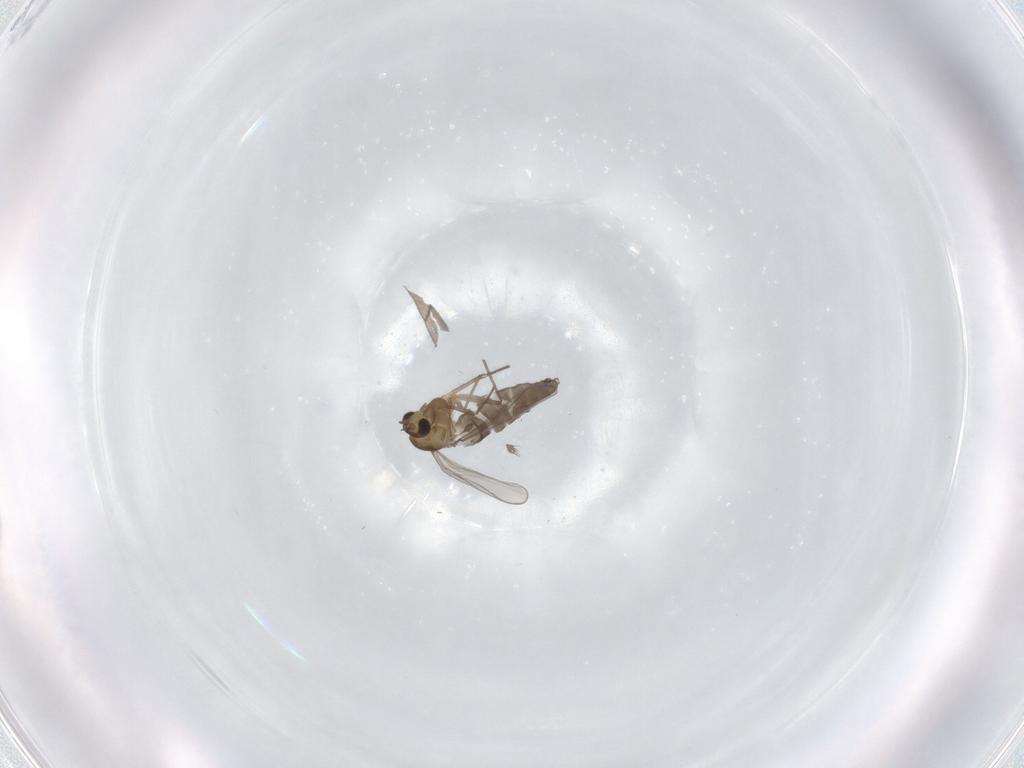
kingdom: Animalia
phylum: Arthropoda
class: Insecta
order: Diptera
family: Chironomidae
